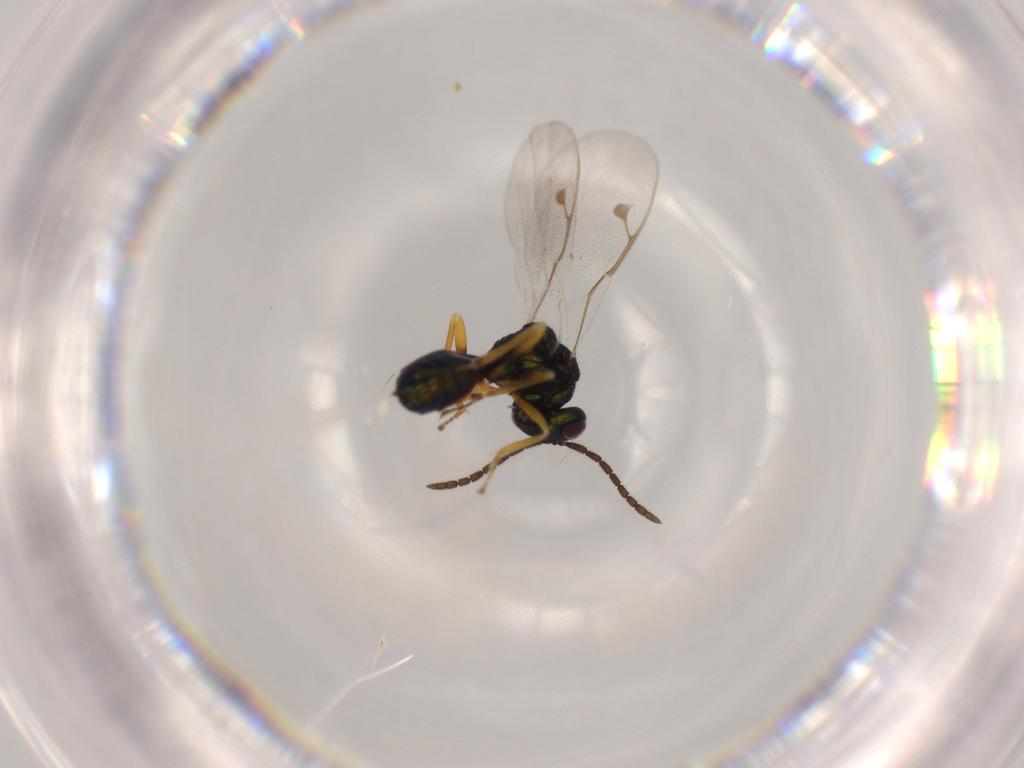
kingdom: Animalia
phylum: Arthropoda
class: Insecta
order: Hymenoptera
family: Pteromalidae
